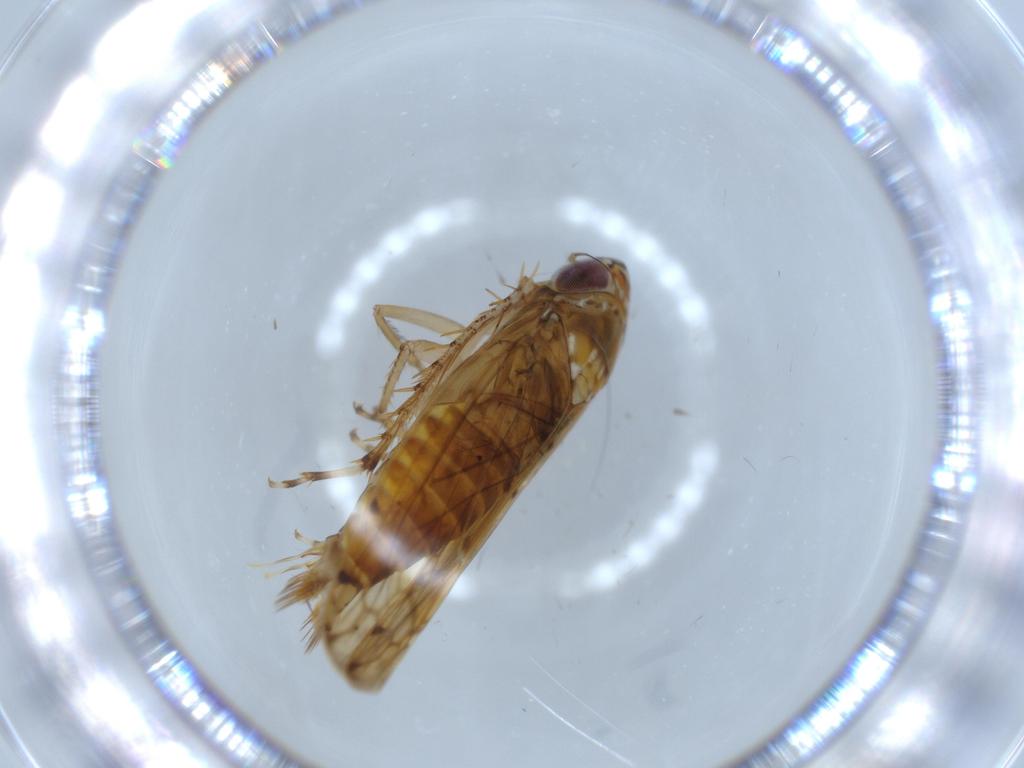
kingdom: Animalia
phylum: Arthropoda
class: Insecta
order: Hemiptera
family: Cicadellidae
